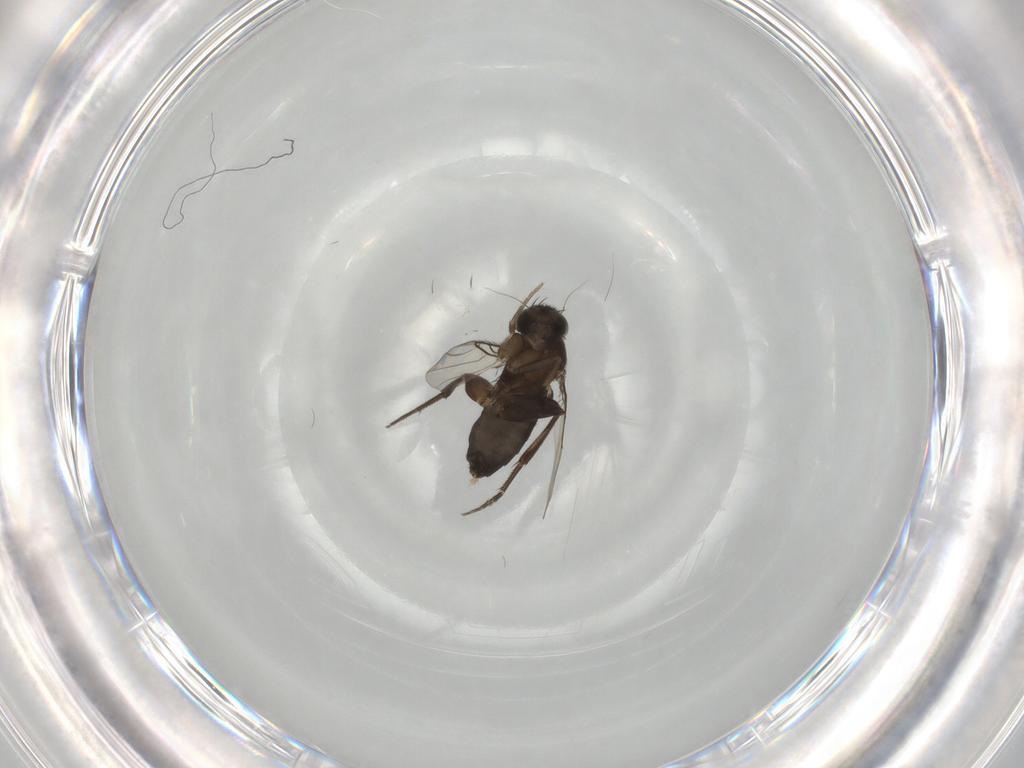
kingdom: Animalia
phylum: Arthropoda
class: Insecta
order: Diptera
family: Phoridae
